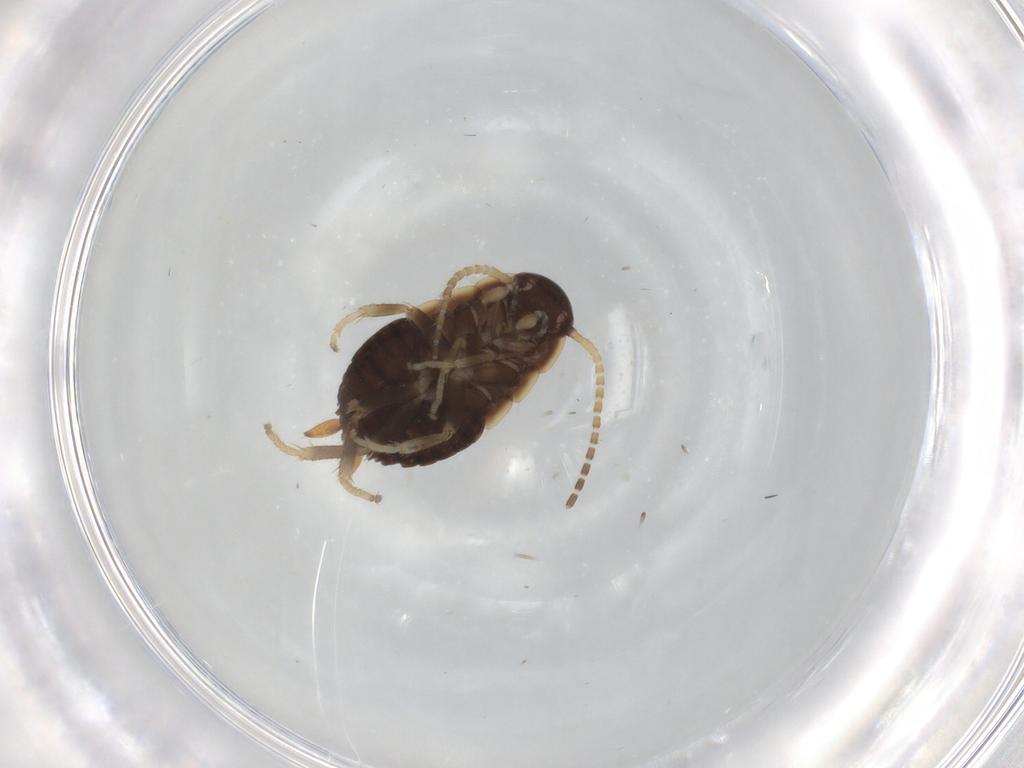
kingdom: Animalia
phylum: Arthropoda
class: Insecta
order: Blattodea
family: Ectobiidae
